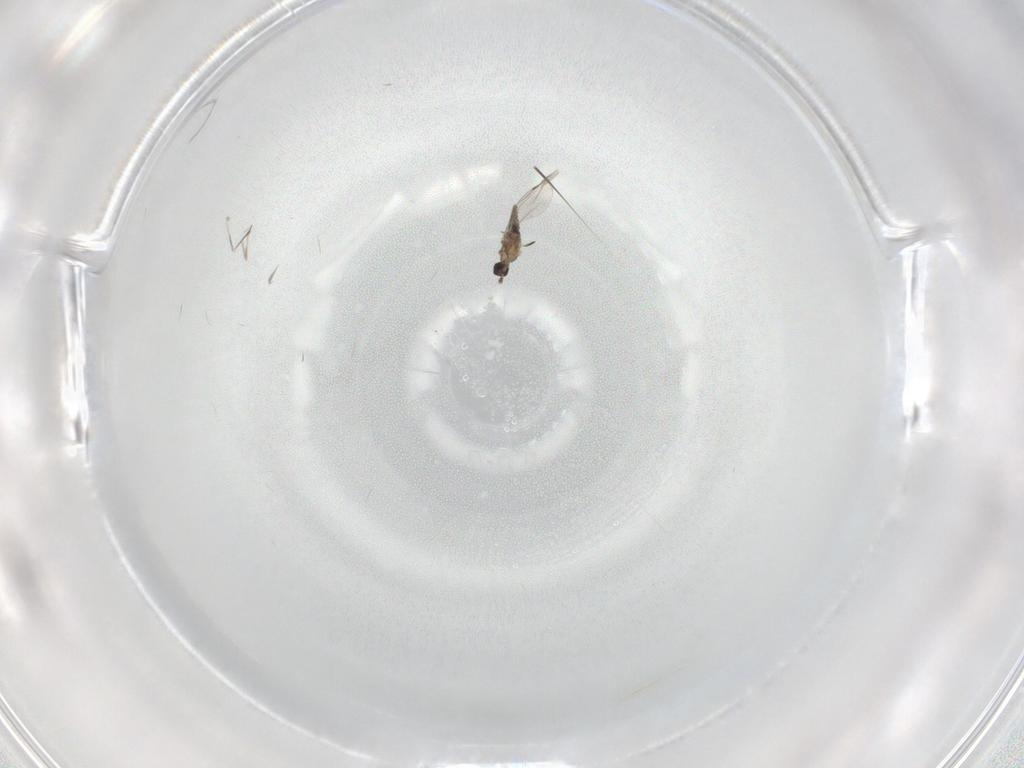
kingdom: Animalia
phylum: Arthropoda
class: Insecta
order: Diptera
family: Cecidomyiidae
